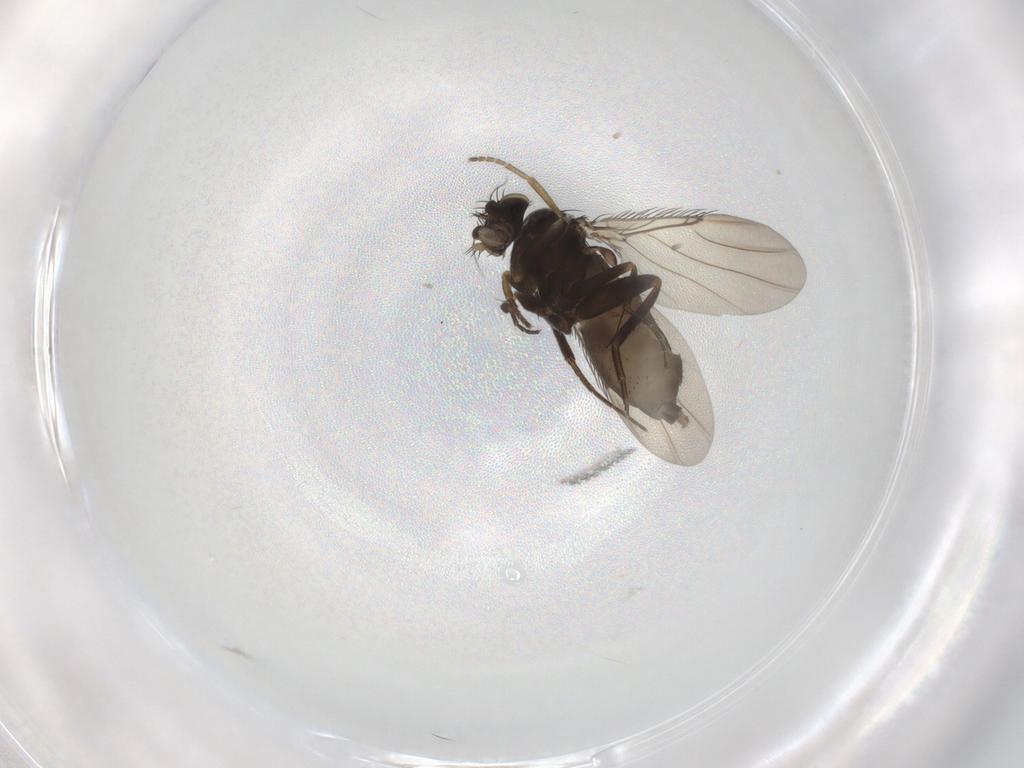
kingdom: Animalia
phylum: Arthropoda
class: Insecta
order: Diptera
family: Phoridae
